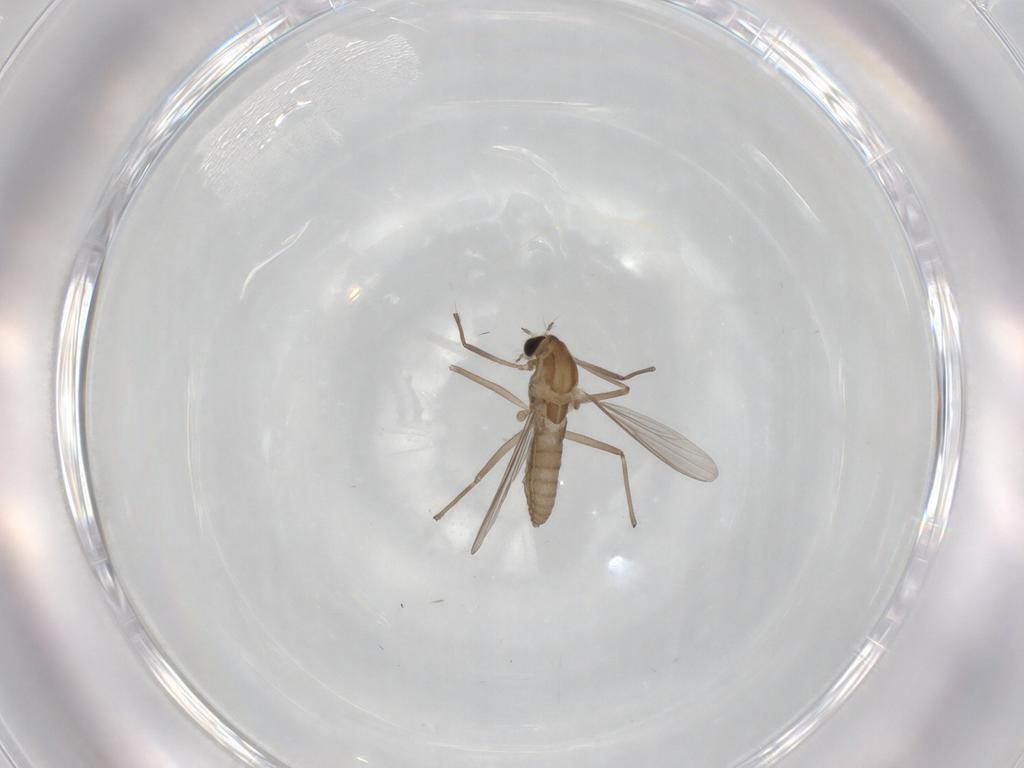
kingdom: Animalia
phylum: Arthropoda
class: Insecta
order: Diptera
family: Chironomidae
